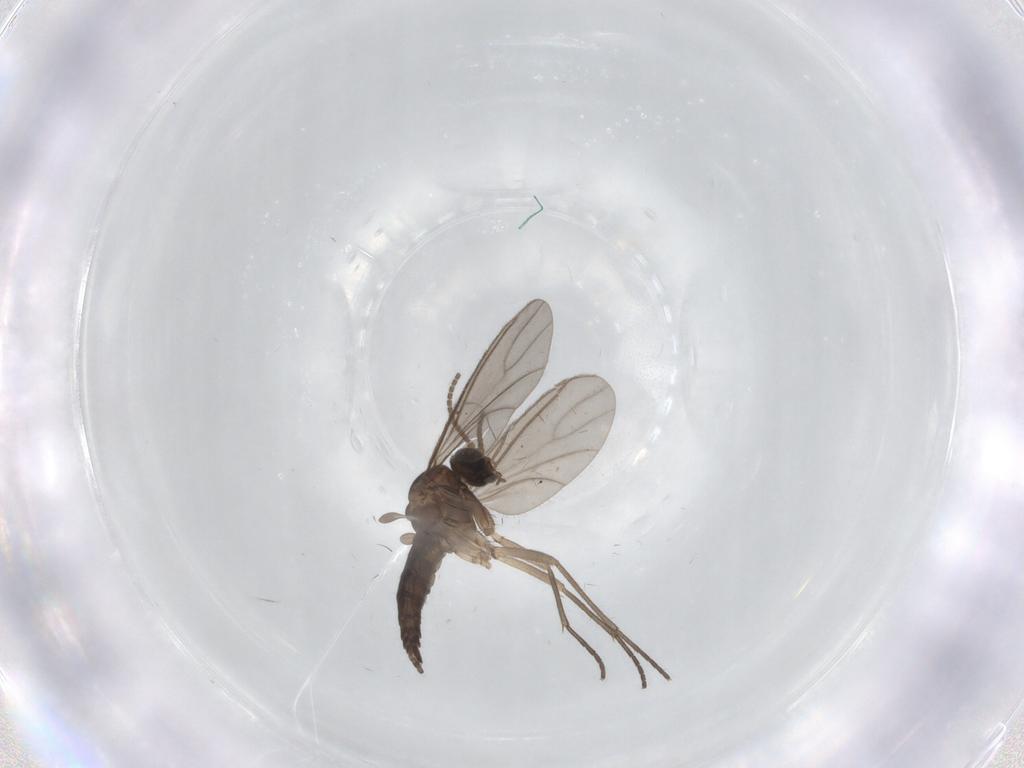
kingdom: Animalia
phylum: Arthropoda
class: Insecta
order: Diptera
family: Sciaridae
